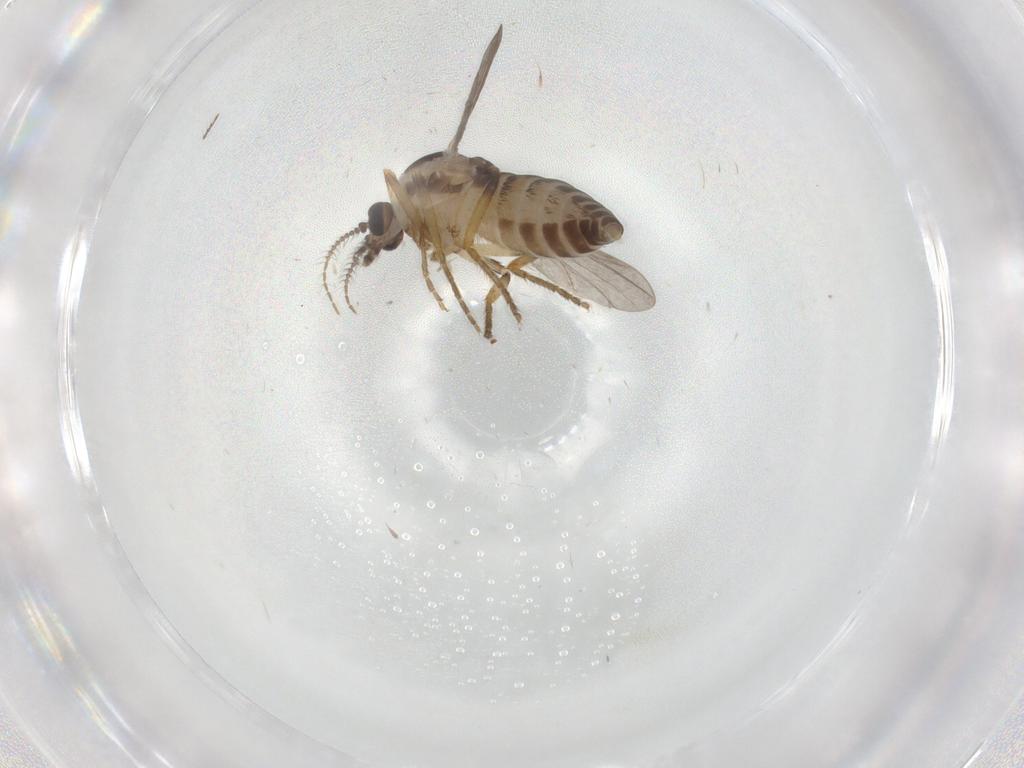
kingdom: Animalia
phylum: Arthropoda
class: Insecta
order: Diptera
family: Ceratopogonidae
